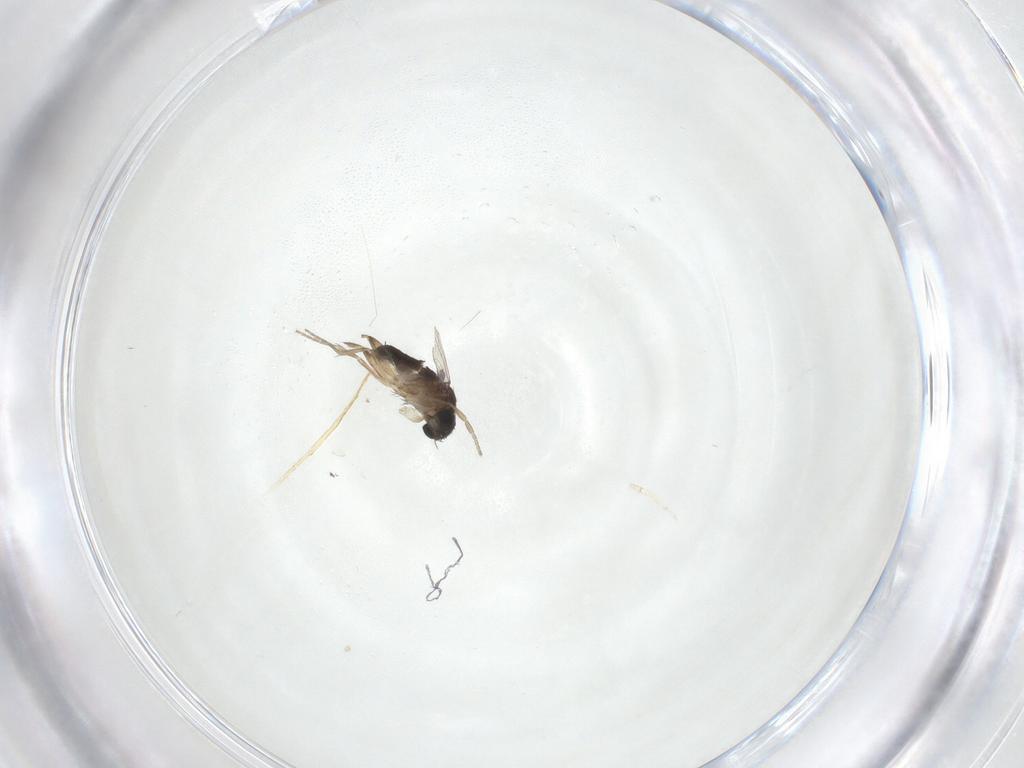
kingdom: Animalia
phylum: Arthropoda
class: Insecta
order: Diptera
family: Phoridae
